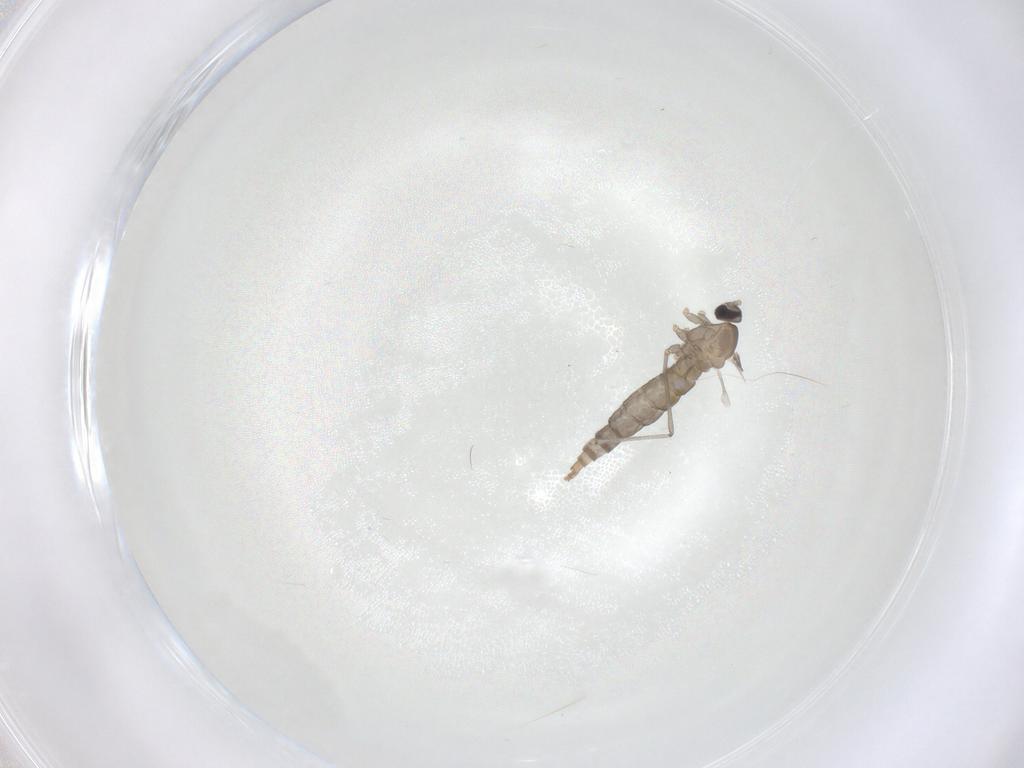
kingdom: Animalia
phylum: Arthropoda
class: Insecta
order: Diptera
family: Cecidomyiidae
